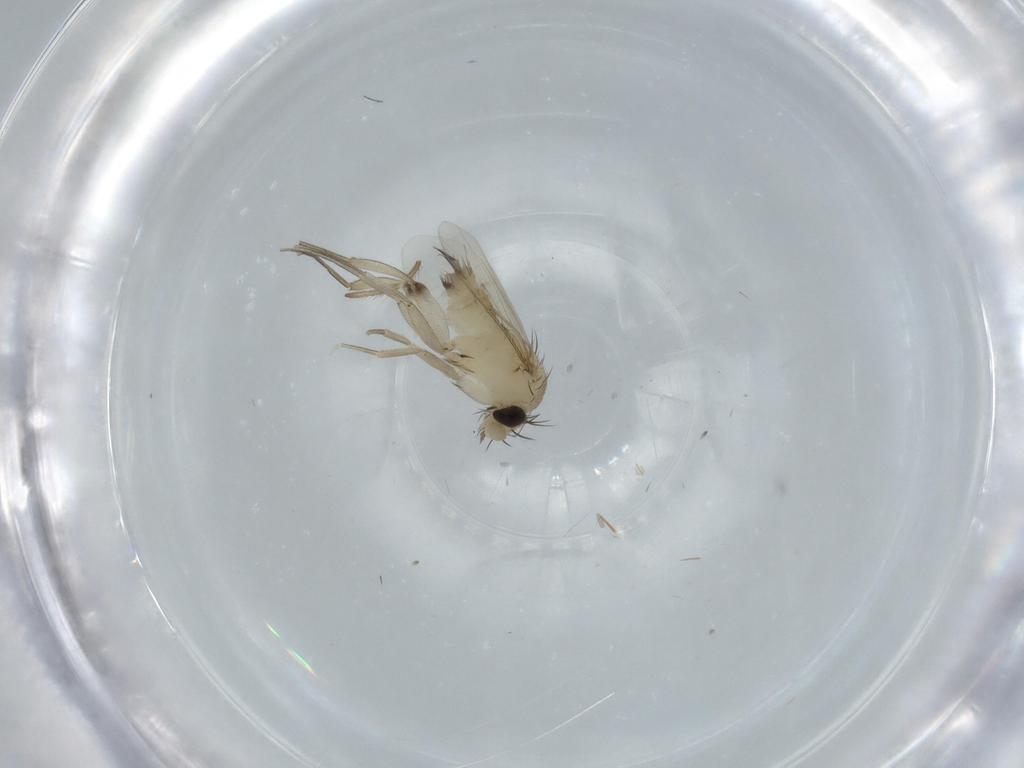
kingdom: Animalia
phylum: Arthropoda
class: Insecta
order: Diptera
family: Phoridae
